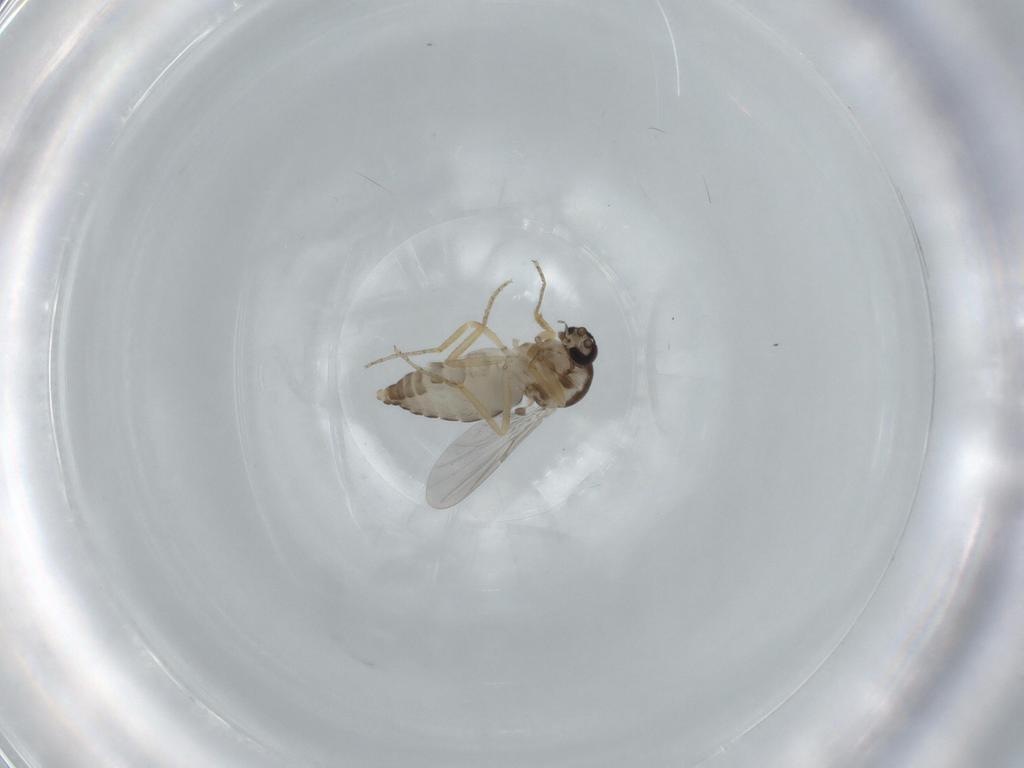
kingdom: Animalia
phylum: Arthropoda
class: Insecta
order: Diptera
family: Ceratopogonidae
